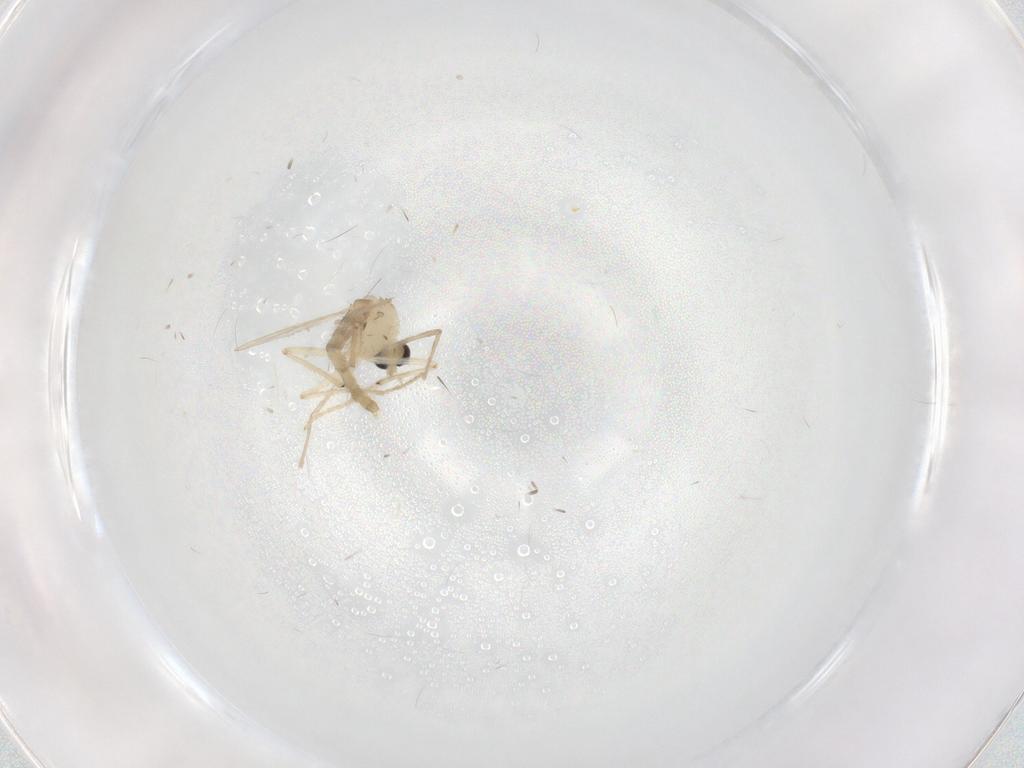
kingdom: Animalia
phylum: Arthropoda
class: Insecta
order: Diptera
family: Chironomidae
